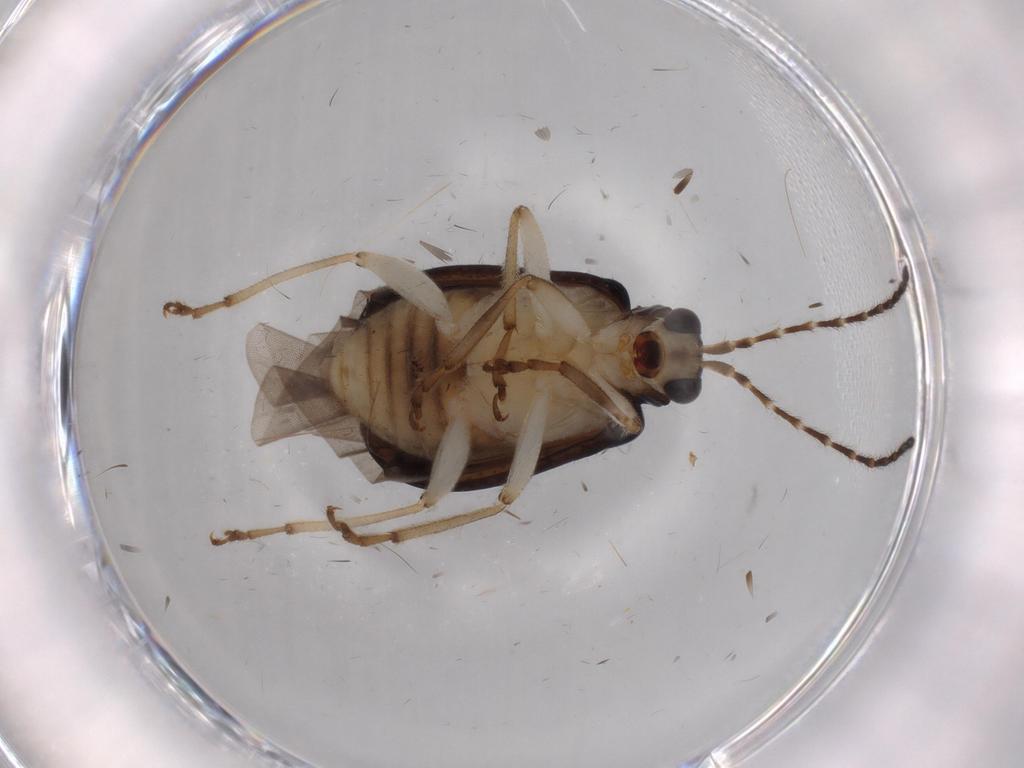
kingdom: Animalia
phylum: Arthropoda
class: Insecta
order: Coleoptera
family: Chrysomelidae
